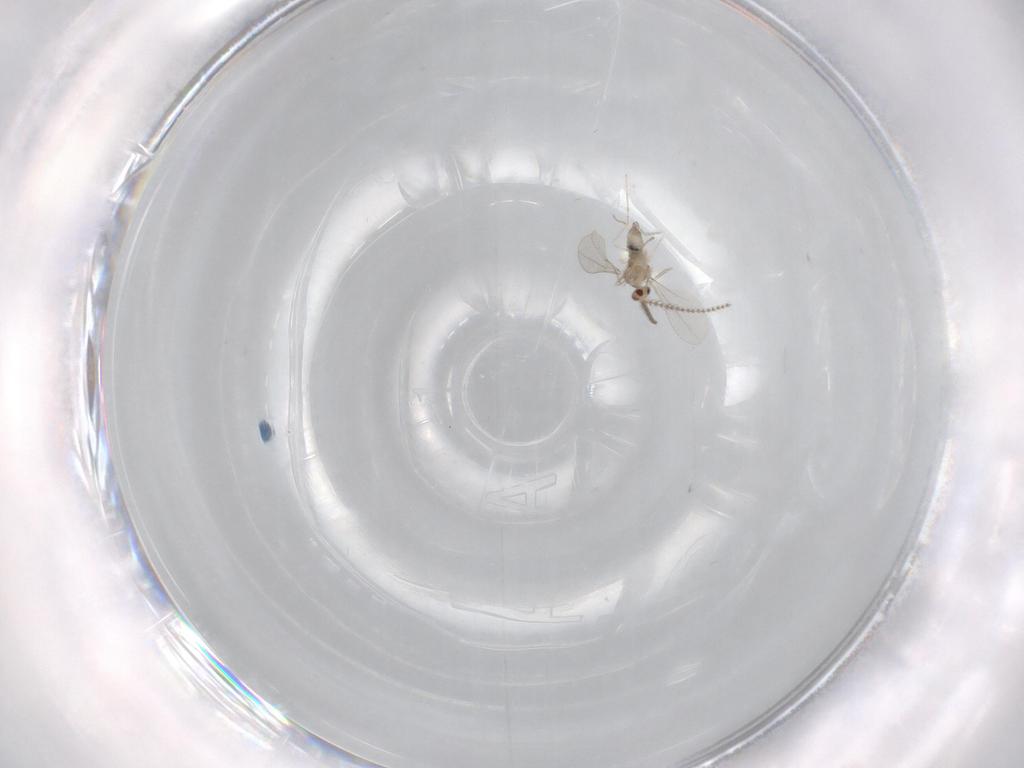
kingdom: Animalia
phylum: Arthropoda
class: Insecta
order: Diptera
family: Cecidomyiidae
